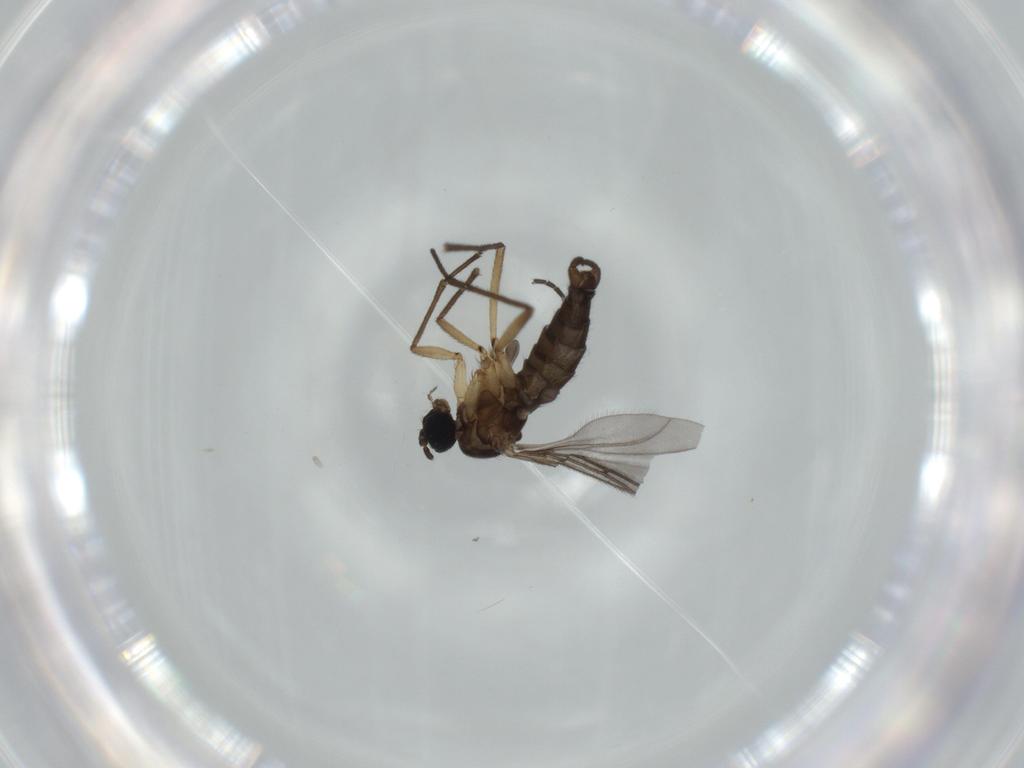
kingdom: Animalia
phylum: Arthropoda
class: Insecta
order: Diptera
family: Sciaridae
